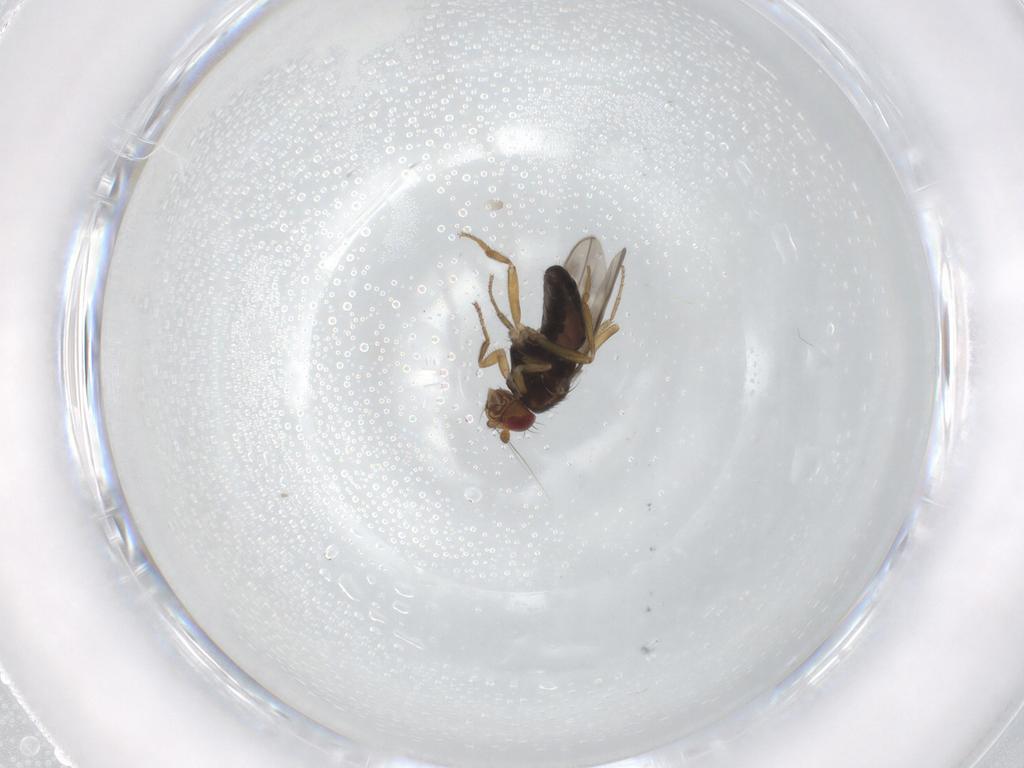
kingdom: Animalia
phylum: Arthropoda
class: Insecta
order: Diptera
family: Sphaeroceridae
